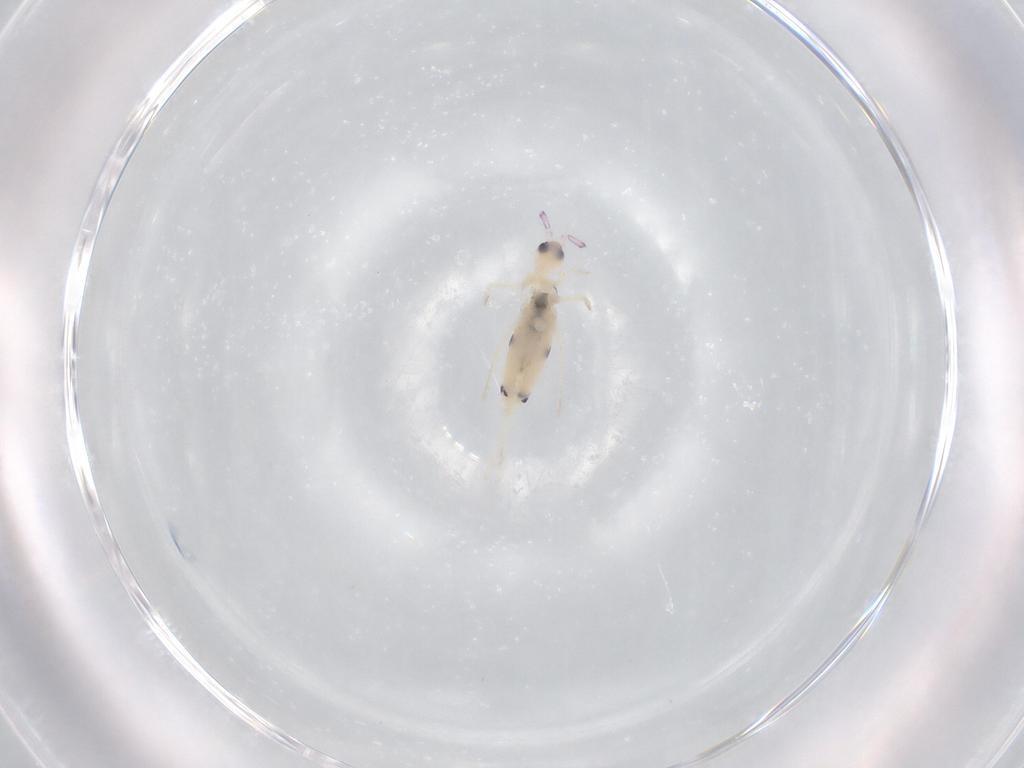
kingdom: Animalia
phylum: Arthropoda
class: Collembola
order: Entomobryomorpha
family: Entomobryidae
